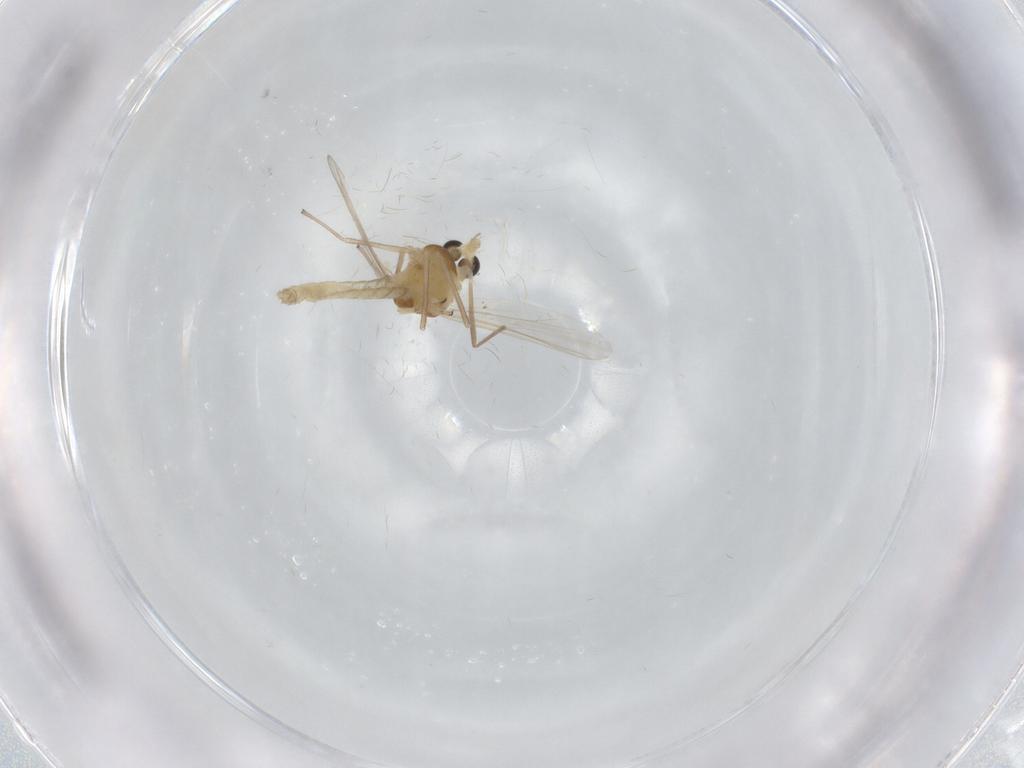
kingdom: Animalia
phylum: Arthropoda
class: Insecta
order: Diptera
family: Chironomidae
